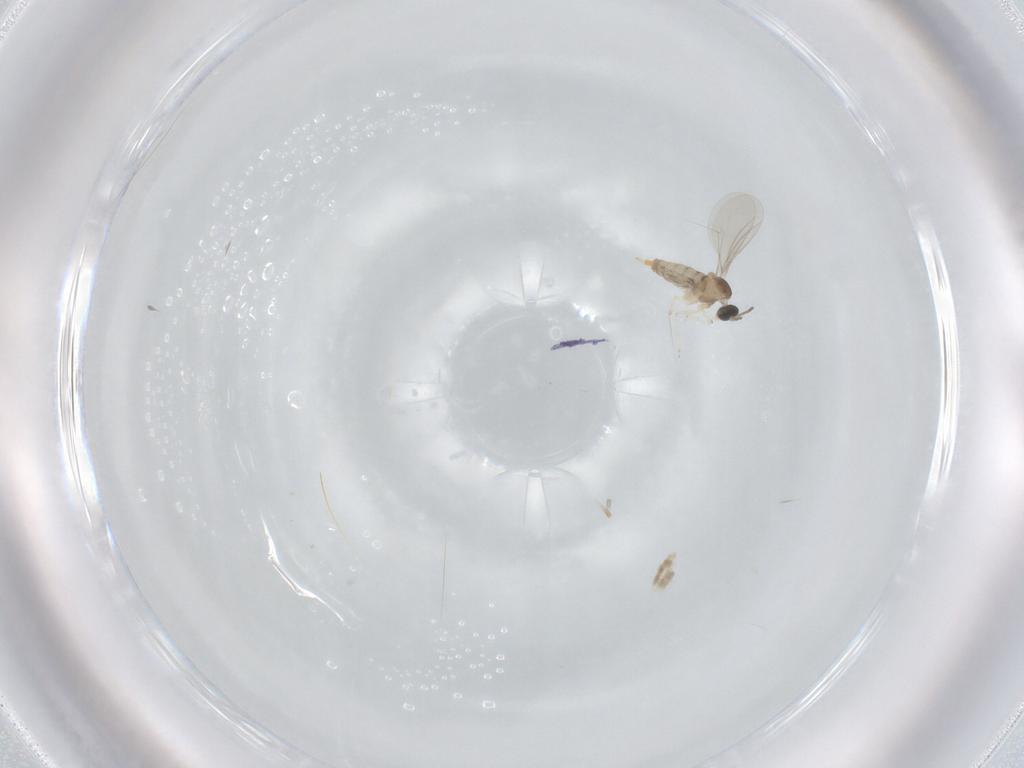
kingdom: Animalia
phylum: Arthropoda
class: Insecta
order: Diptera
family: Cecidomyiidae
